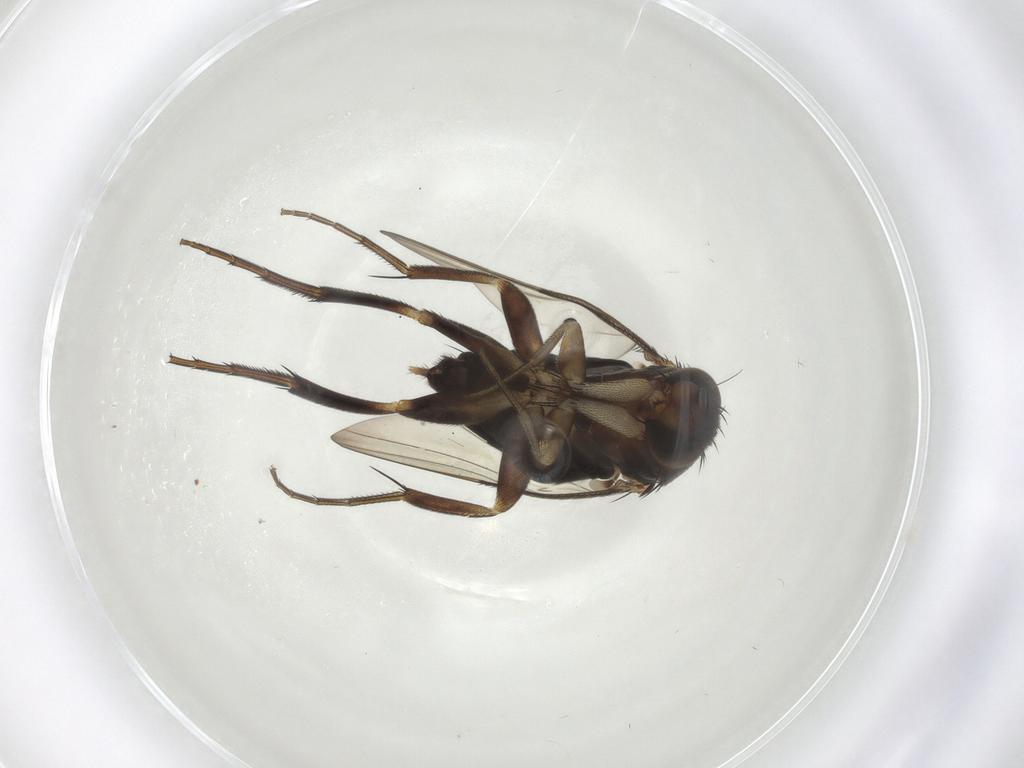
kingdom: Animalia
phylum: Arthropoda
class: Insecta
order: Diptera
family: Phoridae
